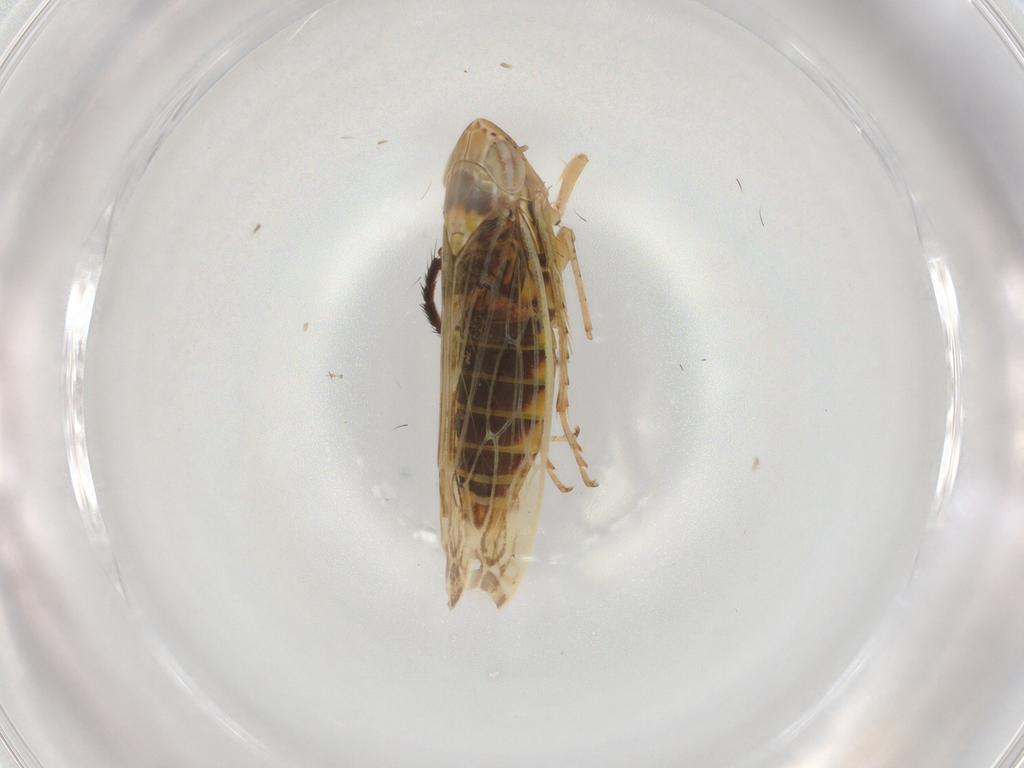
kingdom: Animalia
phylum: Arthropoda
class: Insecta
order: Hemiptera
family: Cicadellidae
